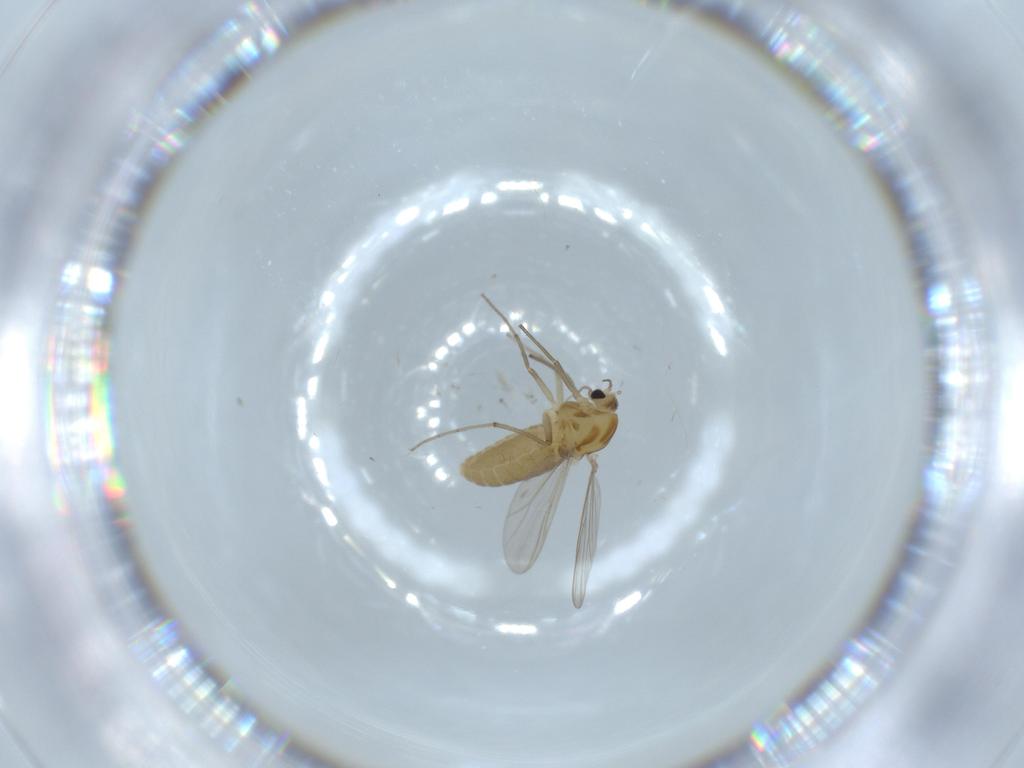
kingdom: Animalia
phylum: Arthropoda
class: Insecta
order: Diptera
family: Chironomidae
